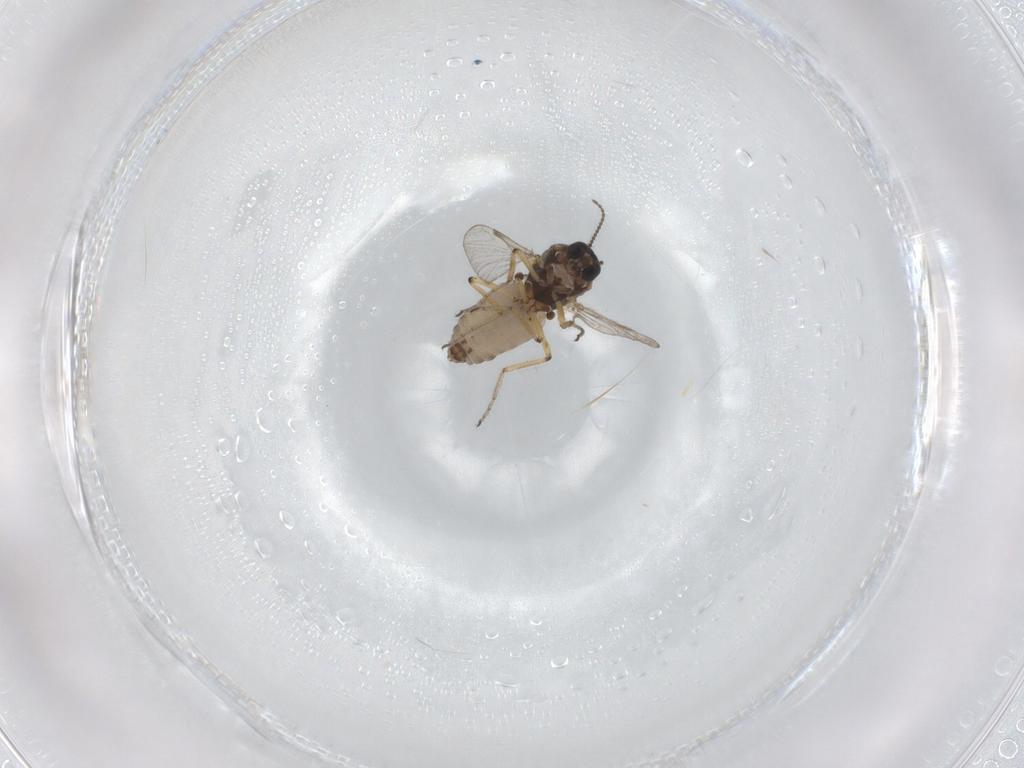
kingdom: Animalia
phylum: Arthropoda
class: Insecta
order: Diptera
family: Ceratopogonidae
